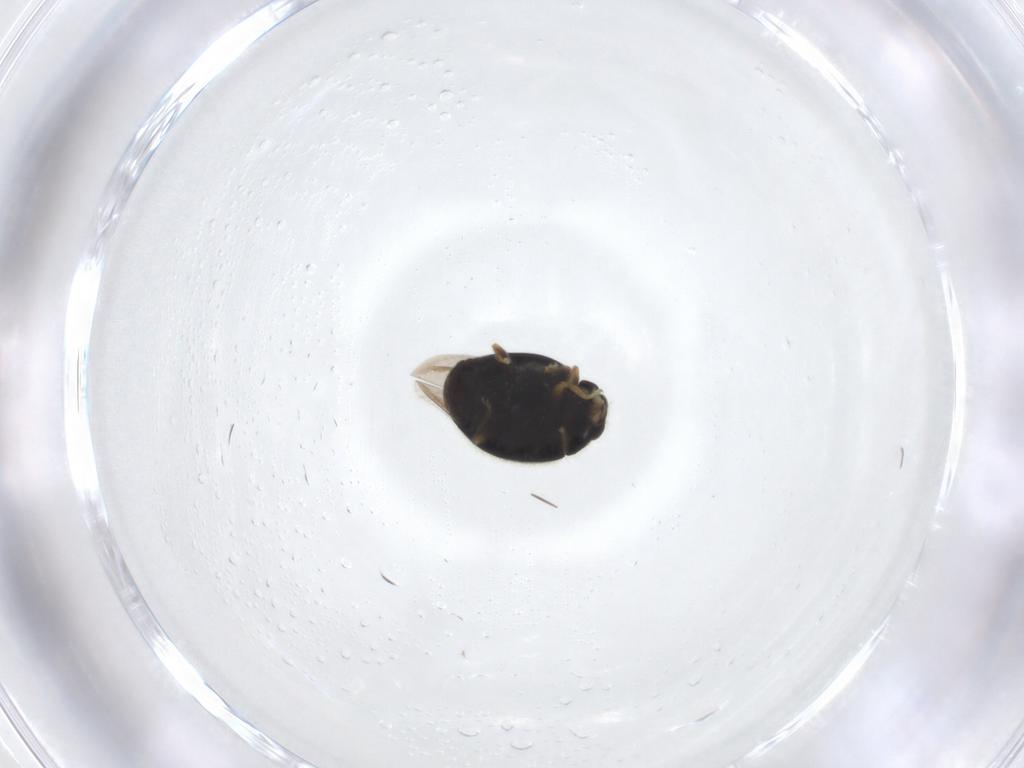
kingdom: Animalia
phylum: Arthropoda
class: Insecta
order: Coleoptera
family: Coccinellidae
